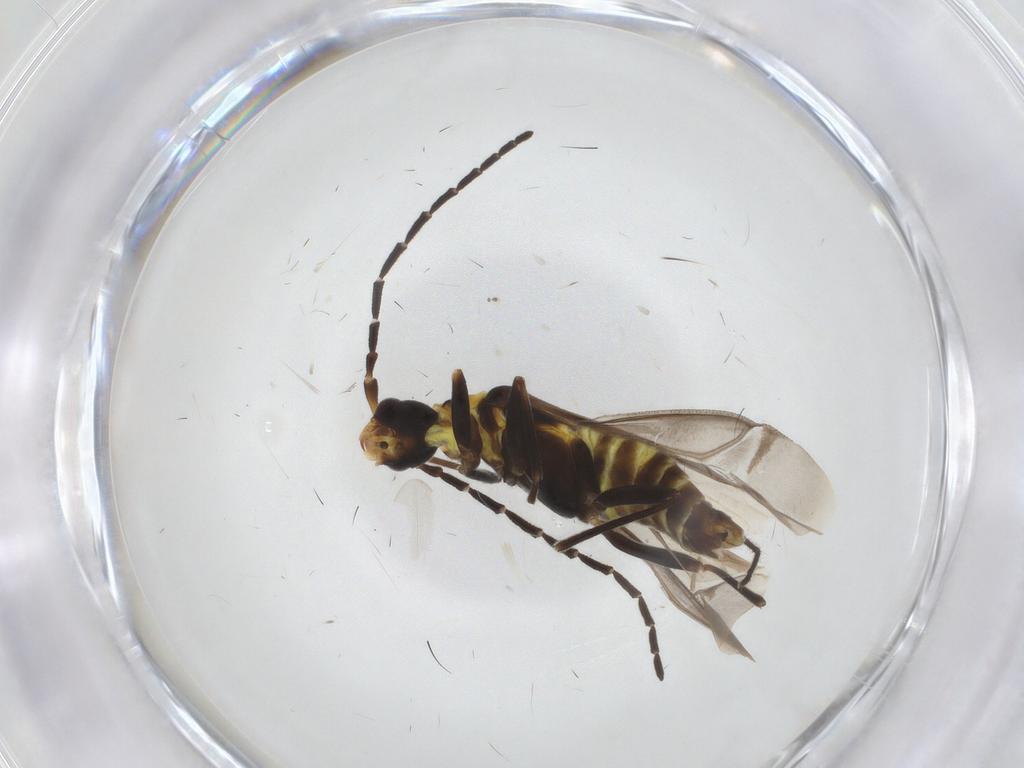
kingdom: Animalia
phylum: Arthropoda
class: Insecta
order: Coleoptera
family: Cantharidae
